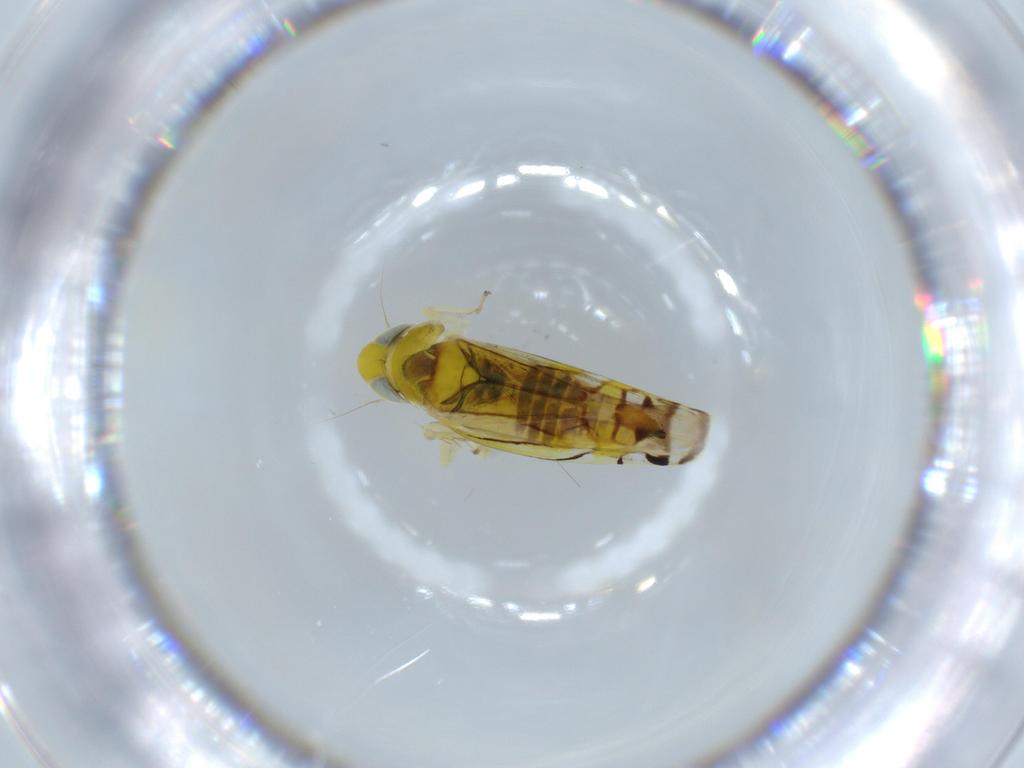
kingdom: Animalia
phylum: Arthropoda
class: Insecta
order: Hemiptera
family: Cicadellidae
